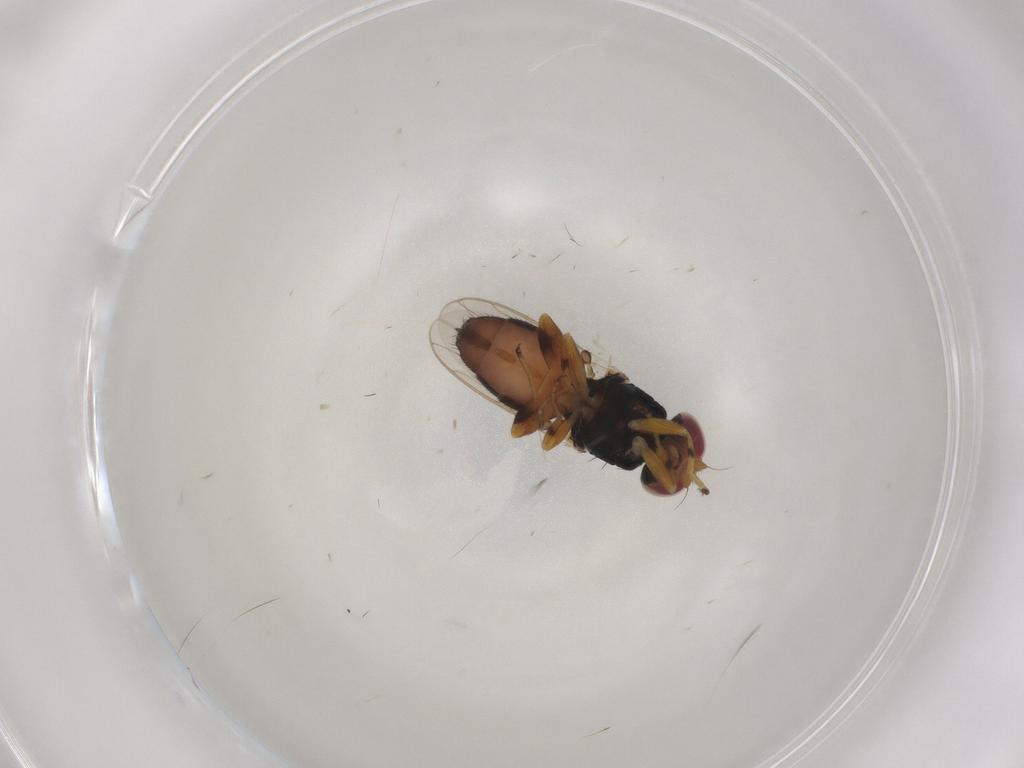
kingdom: Animalia
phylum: Arthropoda
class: Insecta
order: Diptera
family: Chloropidae
